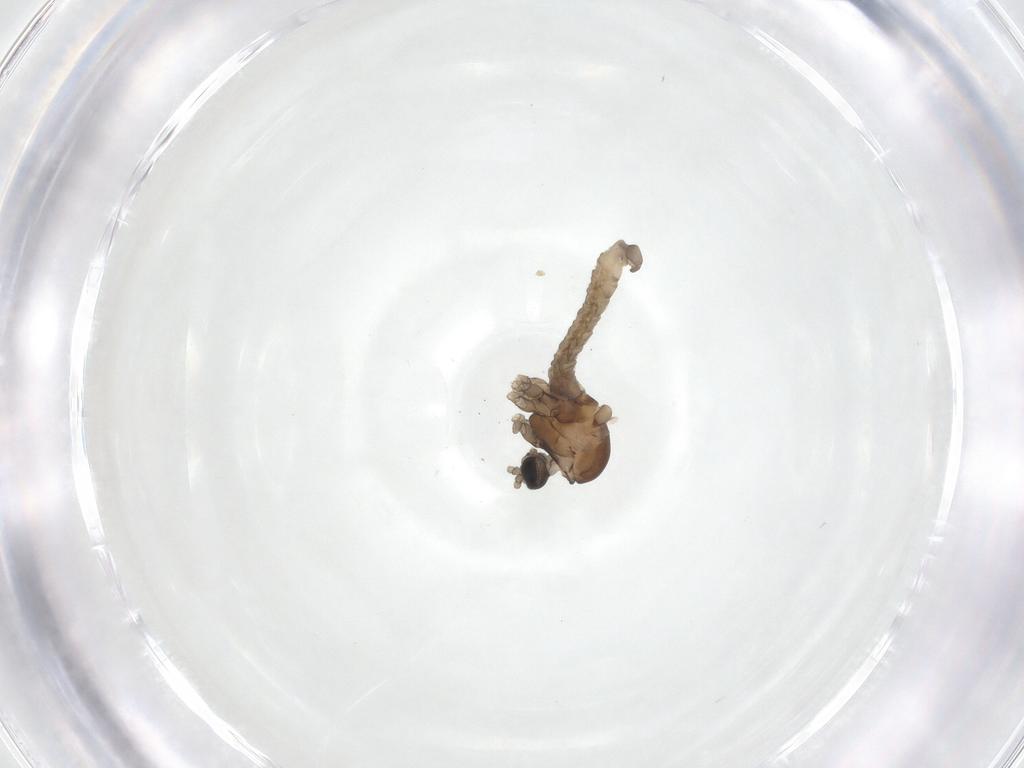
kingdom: Animalia
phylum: Arthropoda
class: Insecta
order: Diptera
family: Cecidomyiidae
